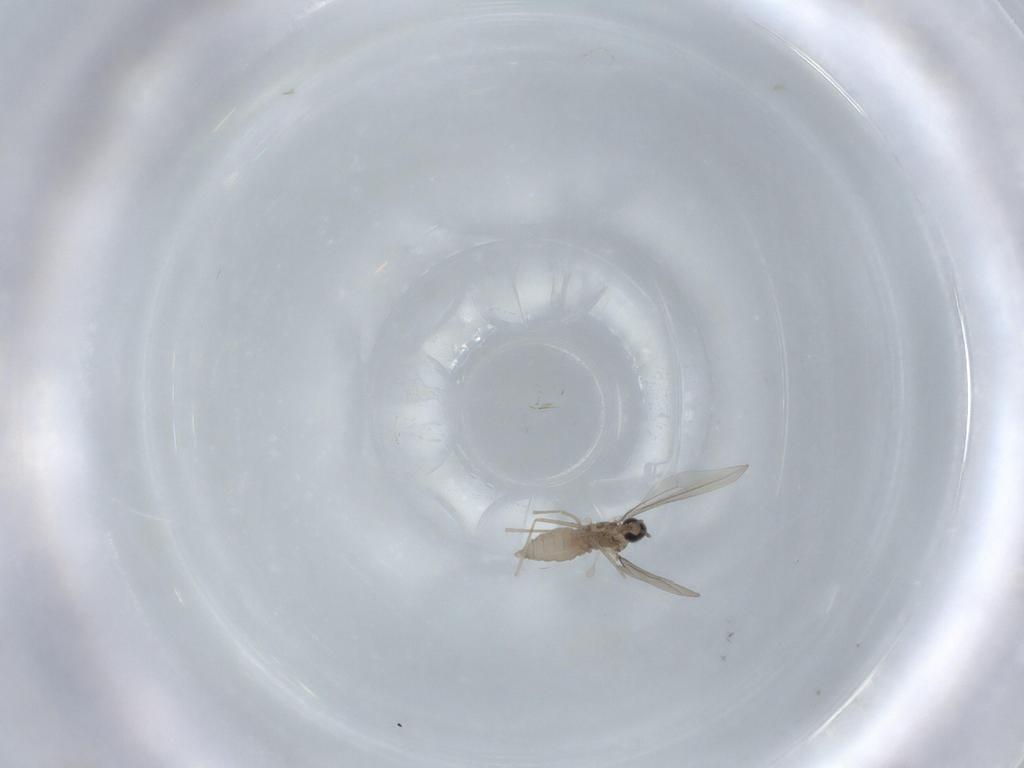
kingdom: Animalia
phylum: Arthropoda
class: Insecta
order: Diptera
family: Cecidomyiidae
